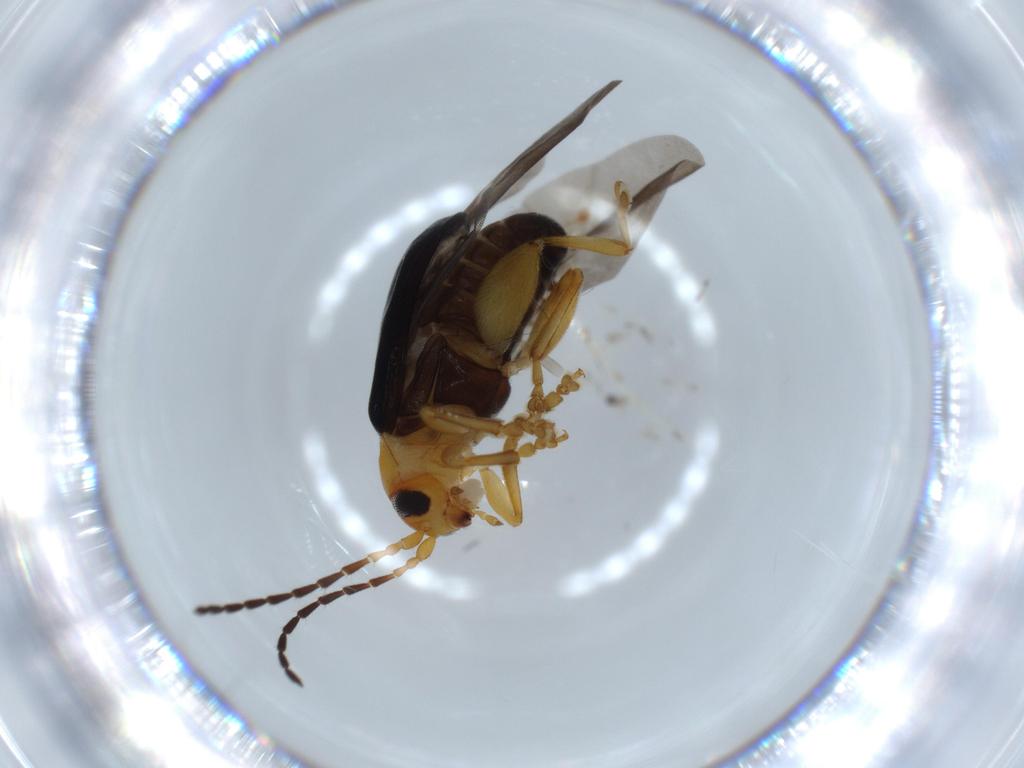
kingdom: Animalia
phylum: Arthropoda
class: Insecta
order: Coleoptera
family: Chrysomelidae
